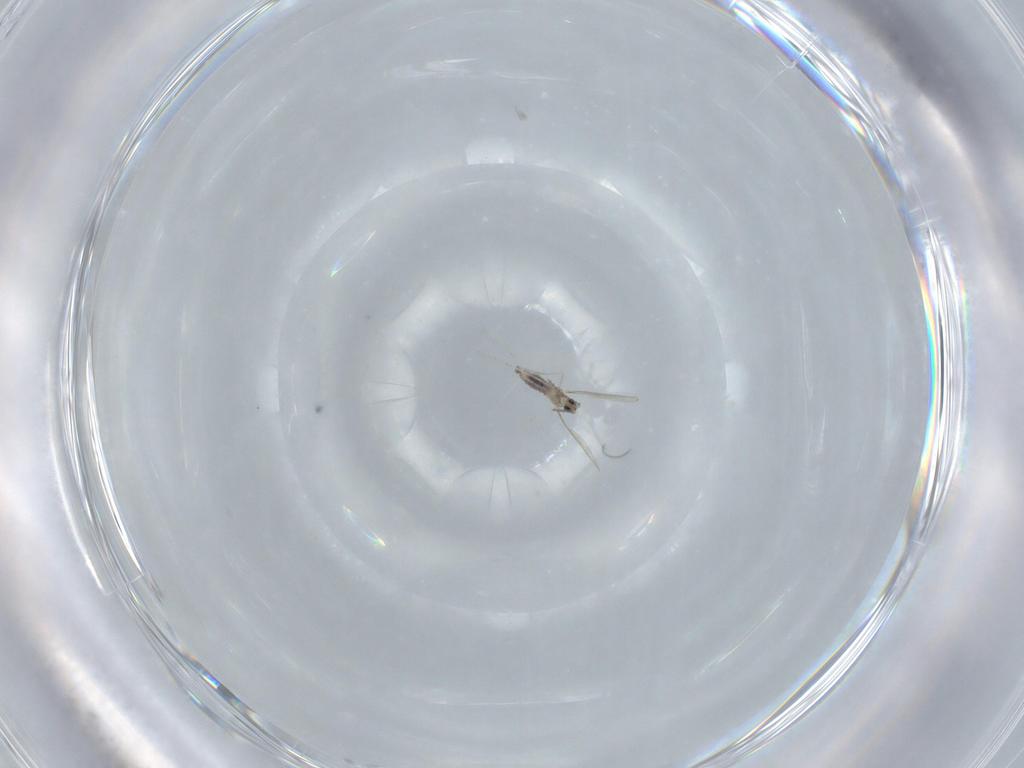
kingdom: Animalia
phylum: Arthropoda
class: Insecta
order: Diptera
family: Cecidomyiidae
